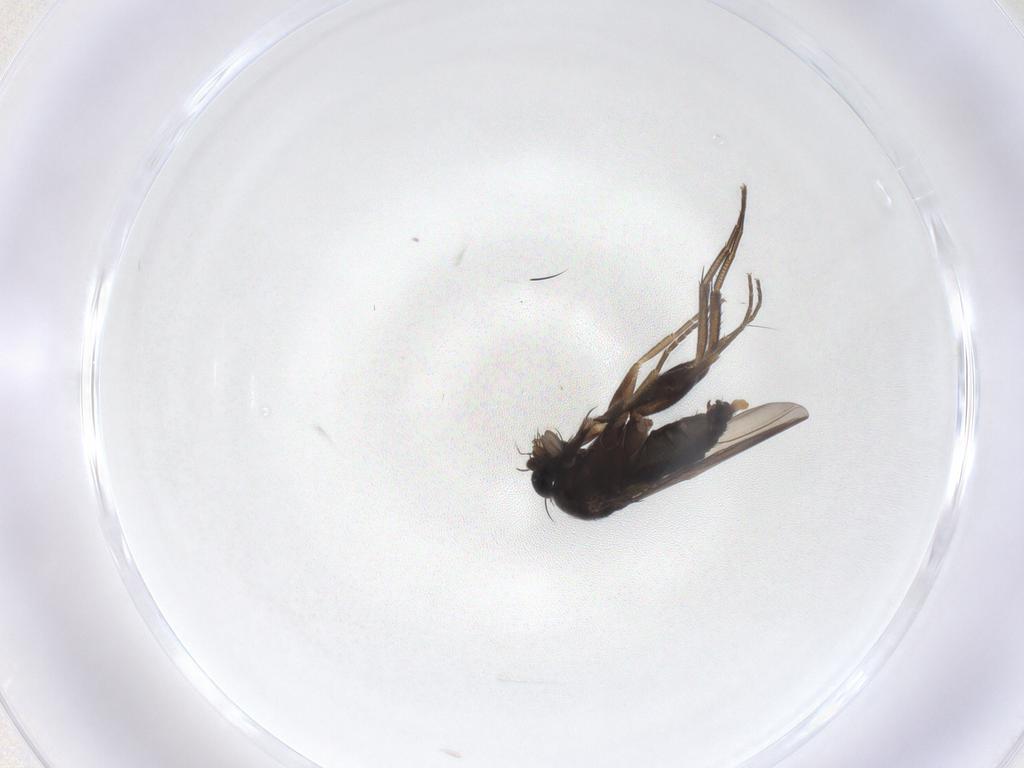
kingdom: Animalia
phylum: Arthropoda
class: Insecta
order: Diptera
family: Phoridae
